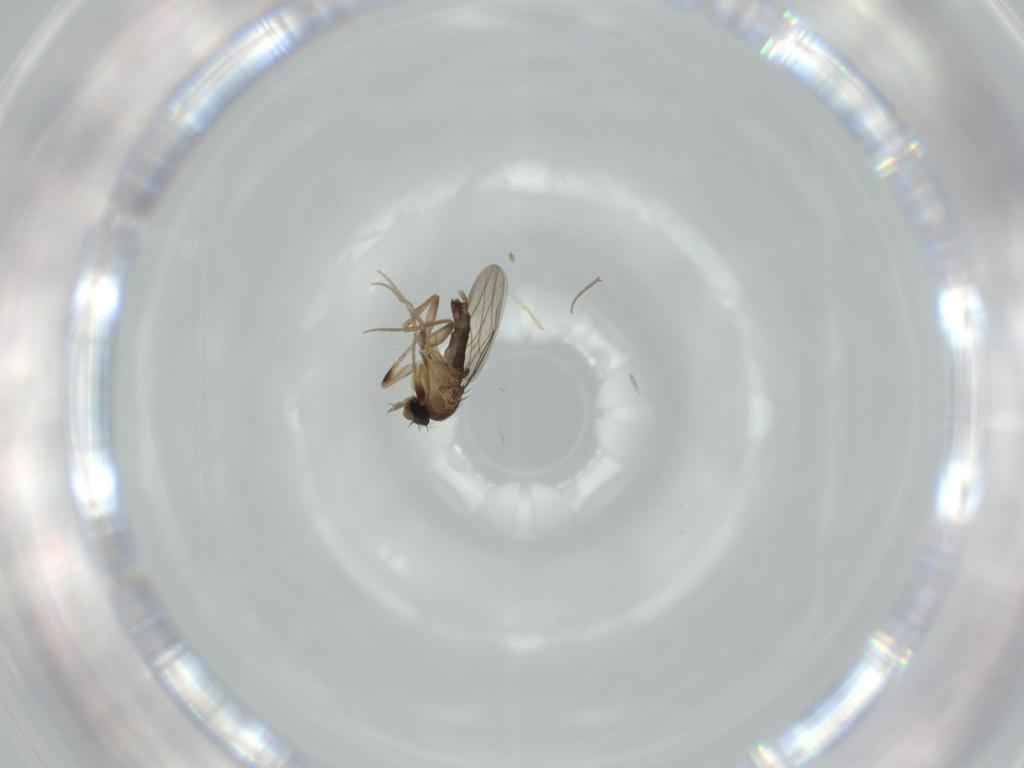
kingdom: Animalia
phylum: Arthropoda
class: Insecta
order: Diptera
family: Phoridae
